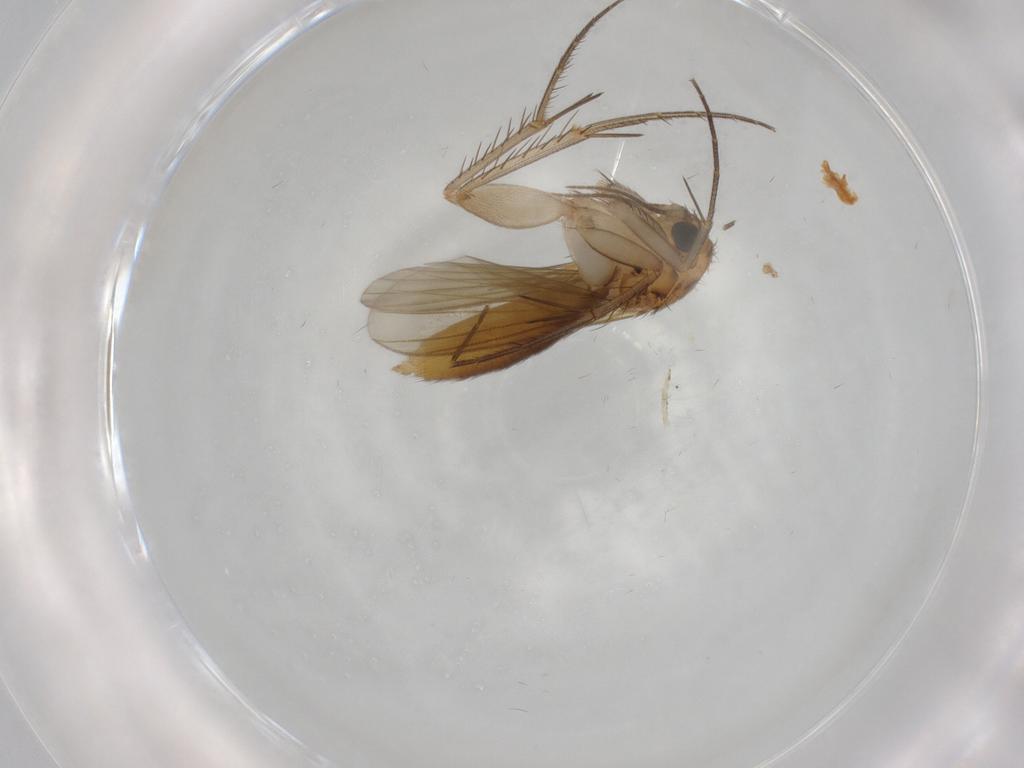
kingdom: Animalia
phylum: Arthropoda
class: Insecta
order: Diptera
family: Mycetophilidae
